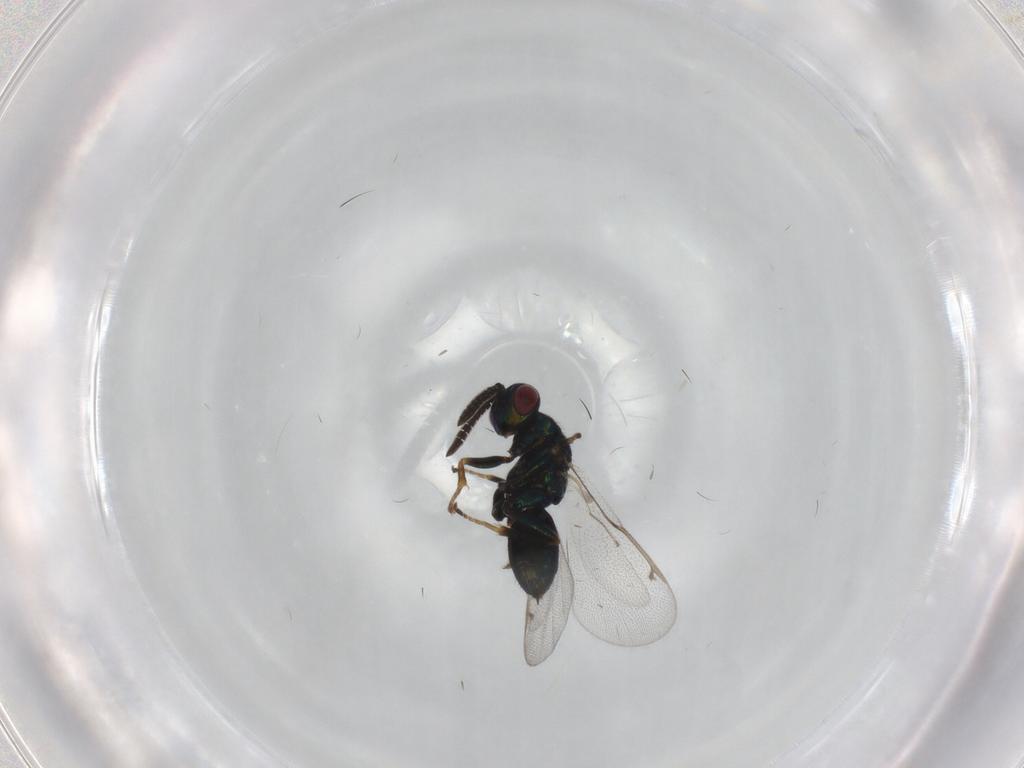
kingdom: Animalia
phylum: Arthropoda
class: Insecta
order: Hymenoptera
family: Torymidae
